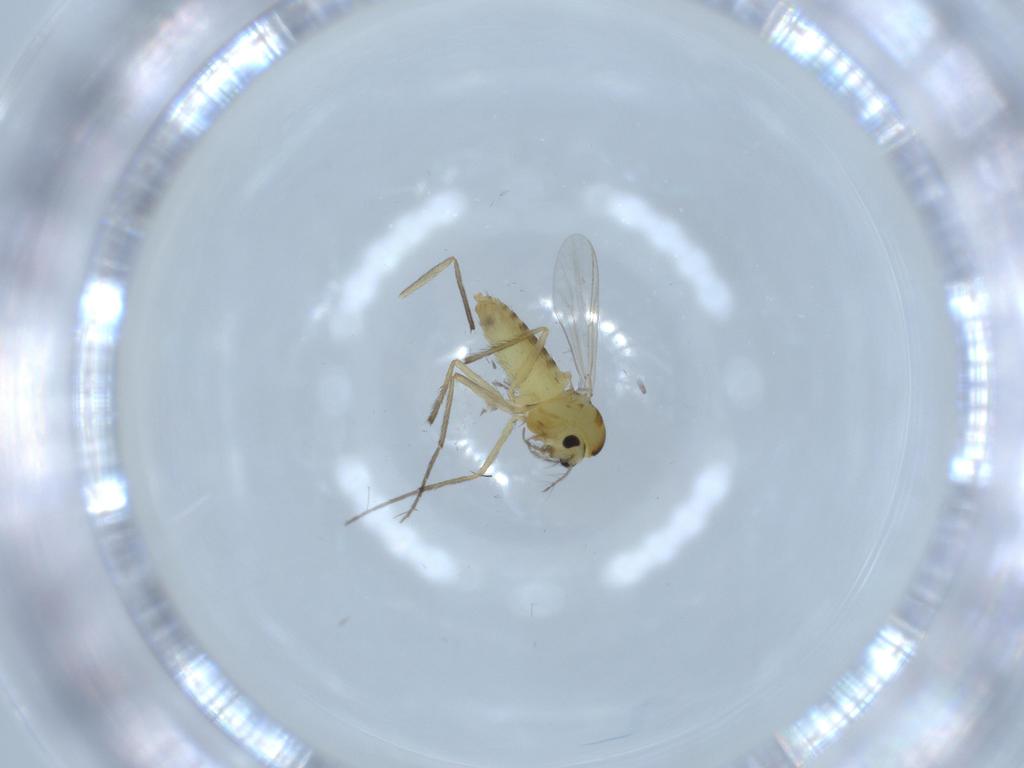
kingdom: Animalia
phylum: Arthropoda
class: Insecta
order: Diptera
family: Chironomidae
